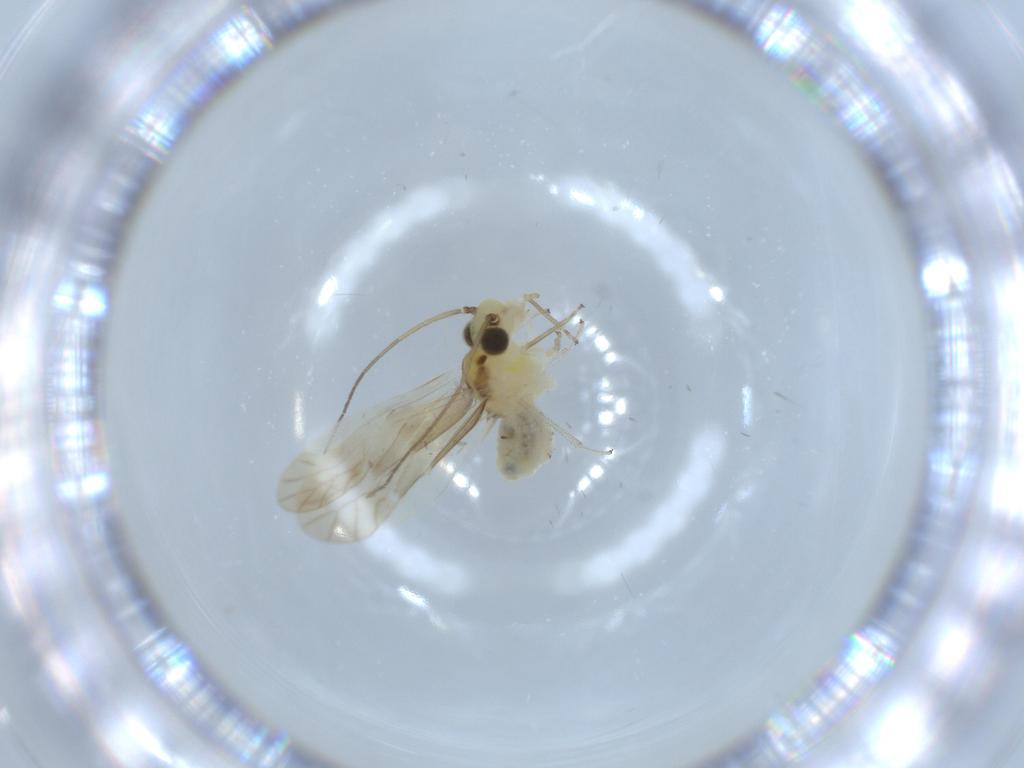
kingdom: Animalia
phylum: Arthropoda
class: Insecta
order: Psocodea
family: Caeciliusidae
